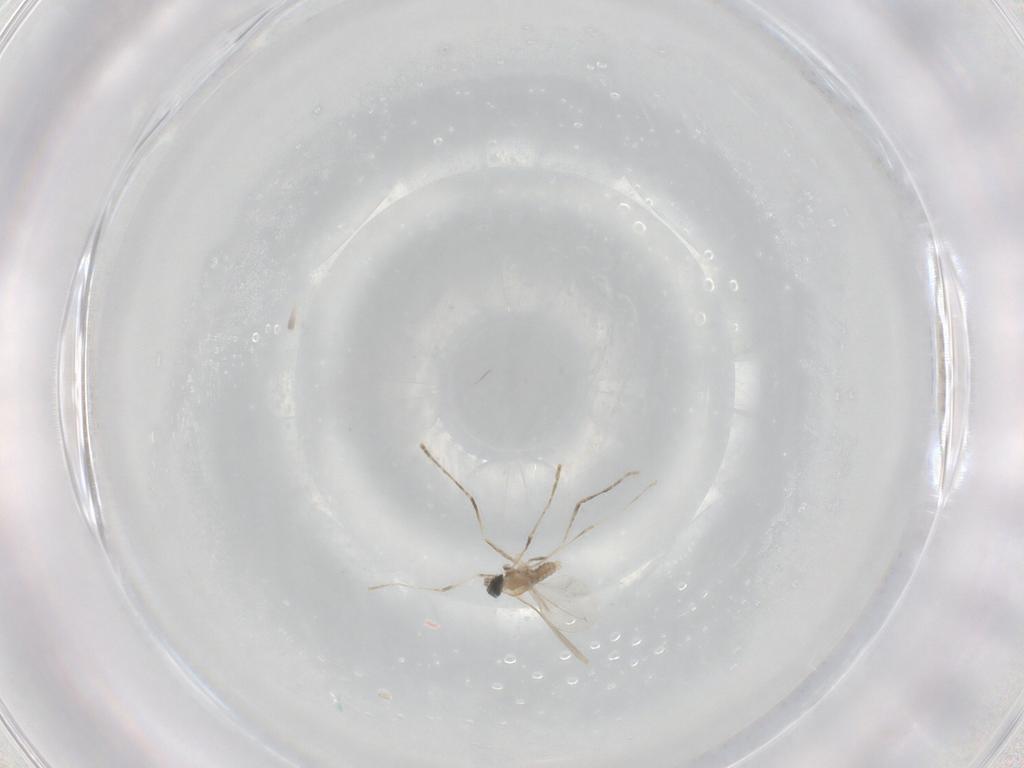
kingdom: Animalia
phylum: Arthropoda
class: Insecta
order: Diptera
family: Cecidomyiidae
